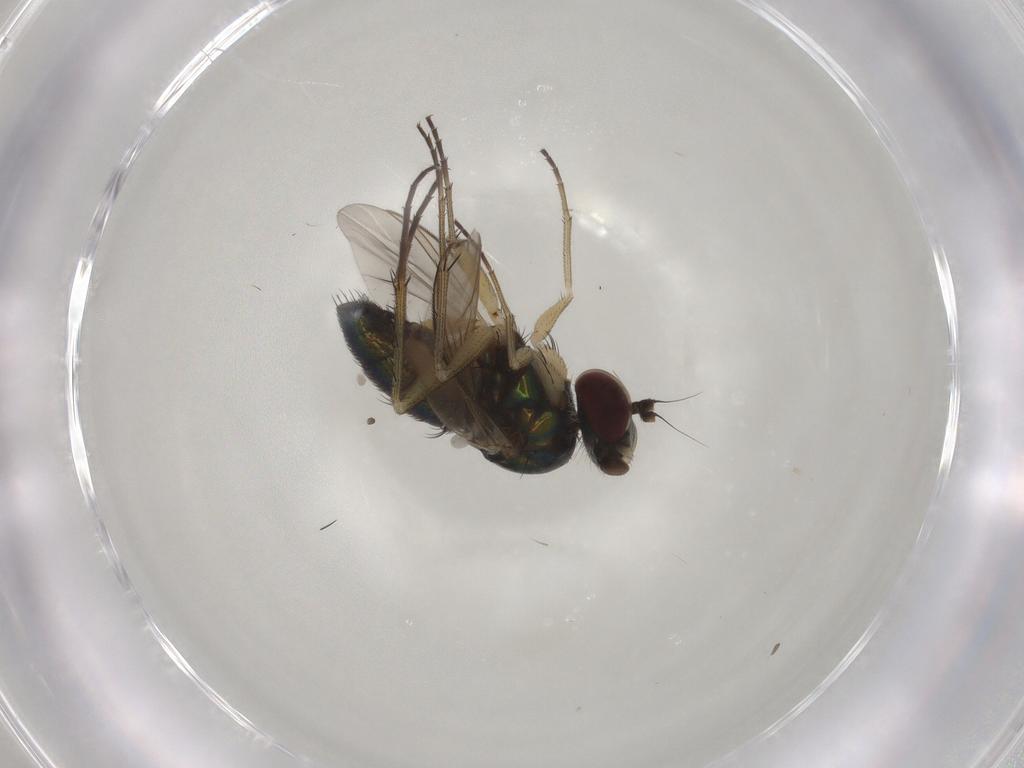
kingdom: Animalia
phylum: Arthropoda
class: Insecta
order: Diptera
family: Dolichopodidae
